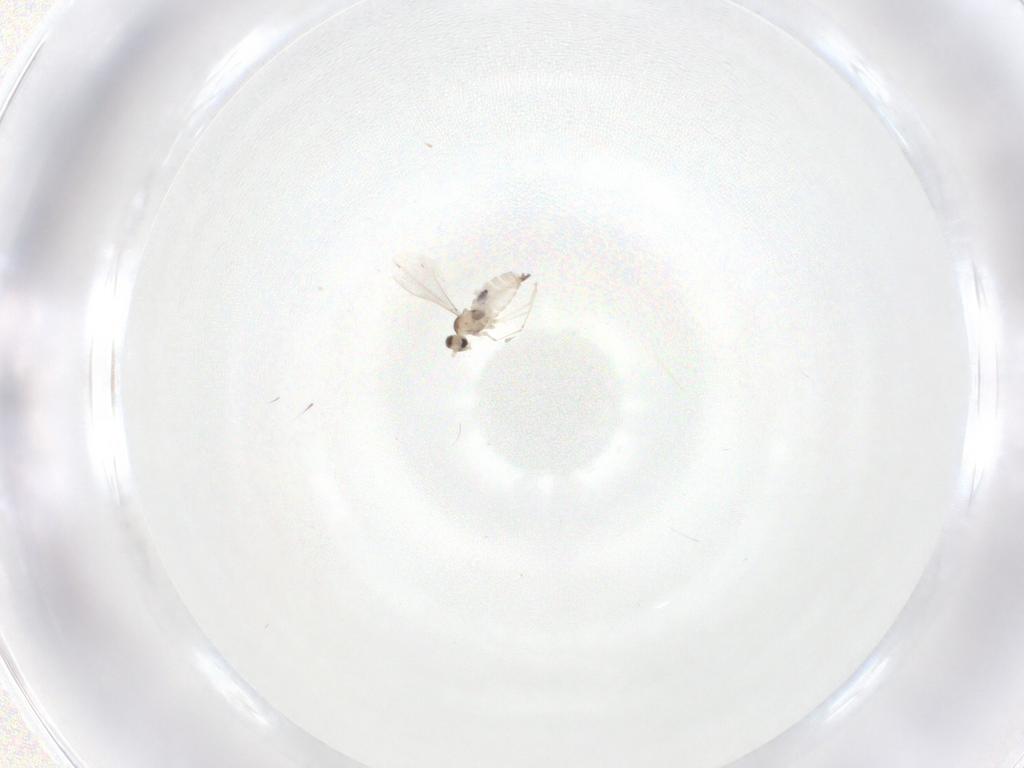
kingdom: Animalia
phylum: Arthropoda
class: Insecta
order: Diptera
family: Cecidomyiidae
